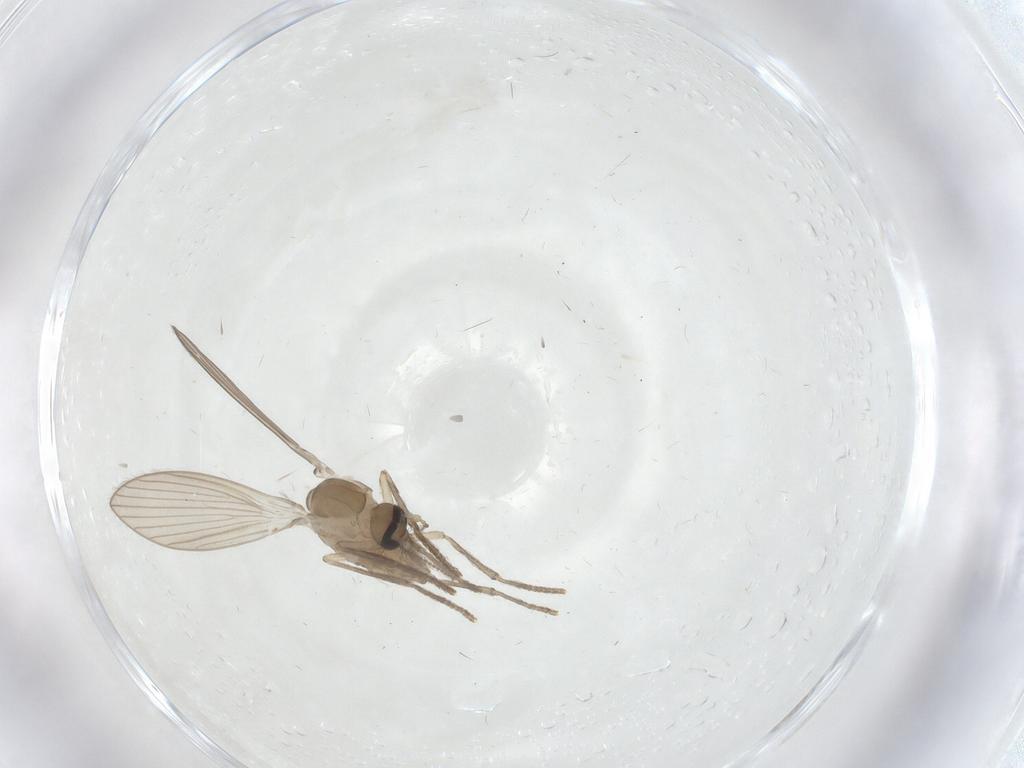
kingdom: Animalia
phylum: Arthropoda
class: Insecta
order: Diptera
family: Psychodidae
